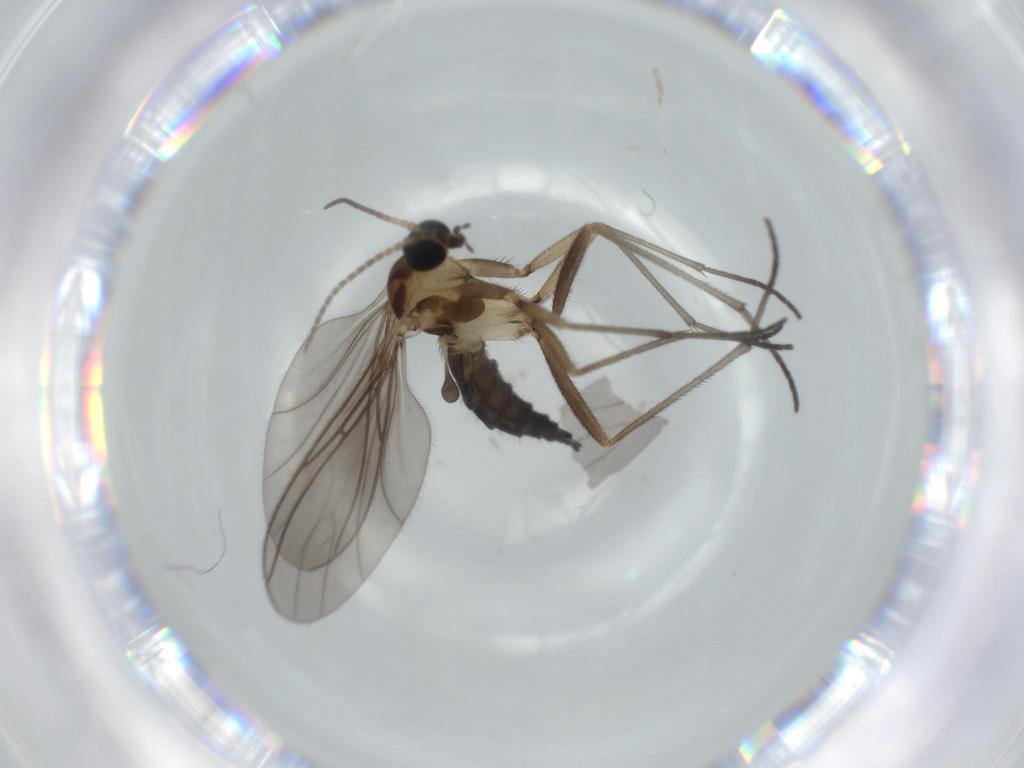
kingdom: Animalia
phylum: Arthropoda
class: Insecta
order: Diptera
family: Sciaridae
